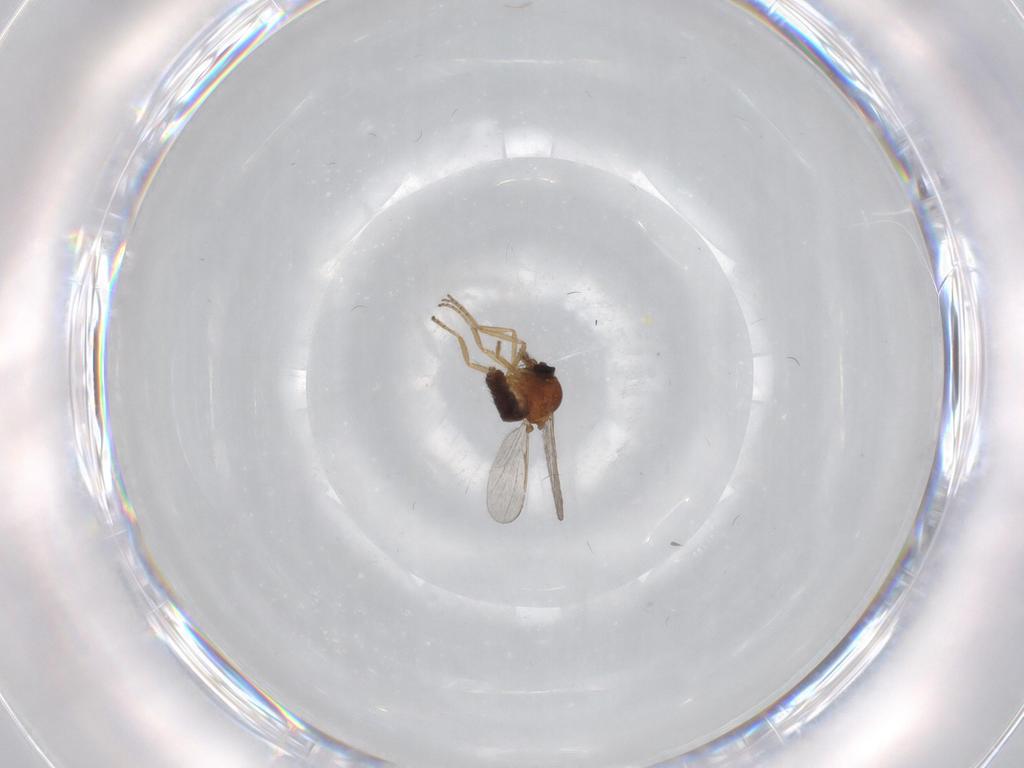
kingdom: Animalia
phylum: Arthropoda
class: Insecta
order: Diptera
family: Ceratopogonidae
